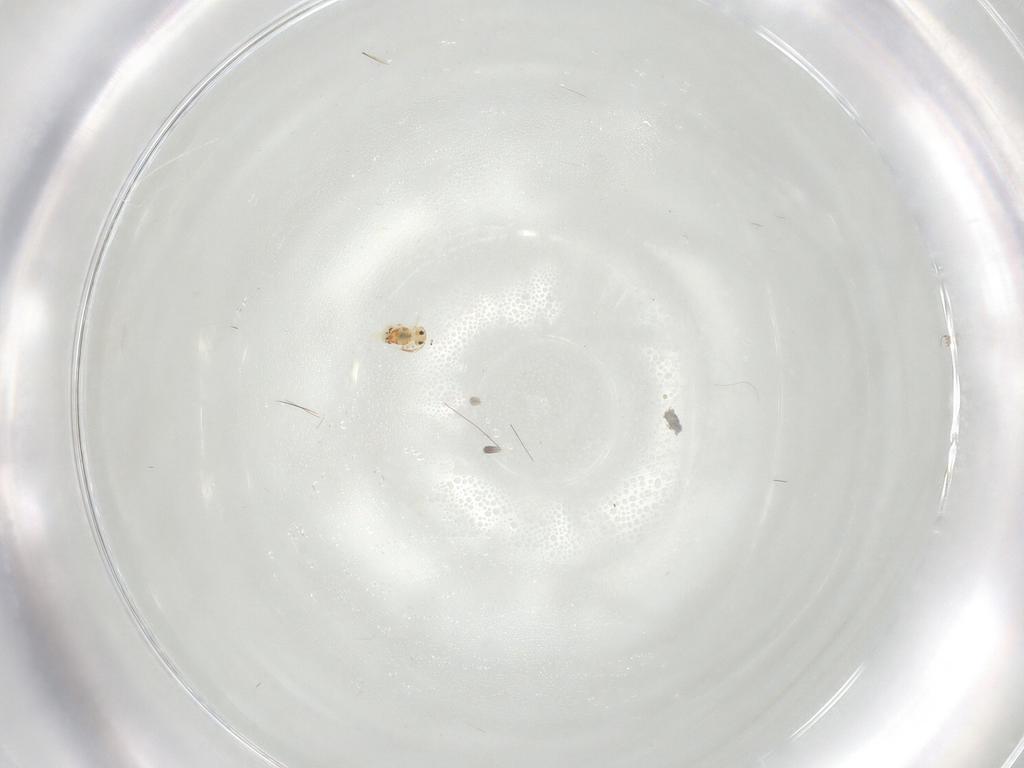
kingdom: Animalia
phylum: Arthropoda
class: Collembola
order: Symphypleona
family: Bourletiellidae
